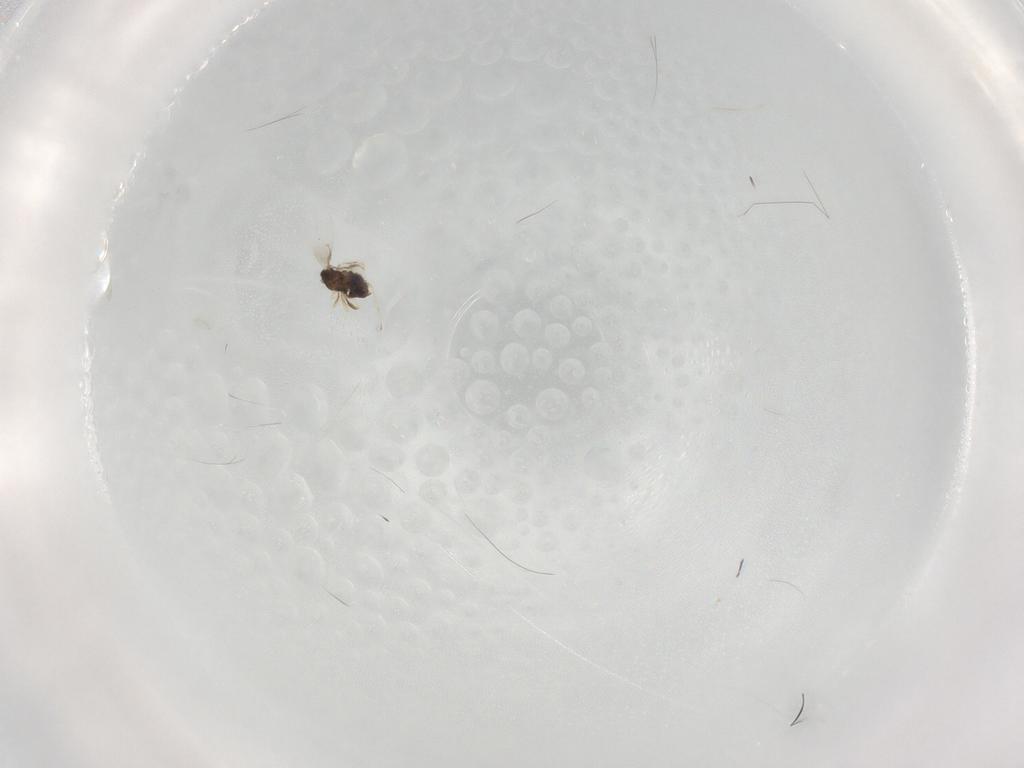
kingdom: Animalia
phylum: Arthropoda
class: Insecta
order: Hymenoptera
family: Trichogrammatidae
